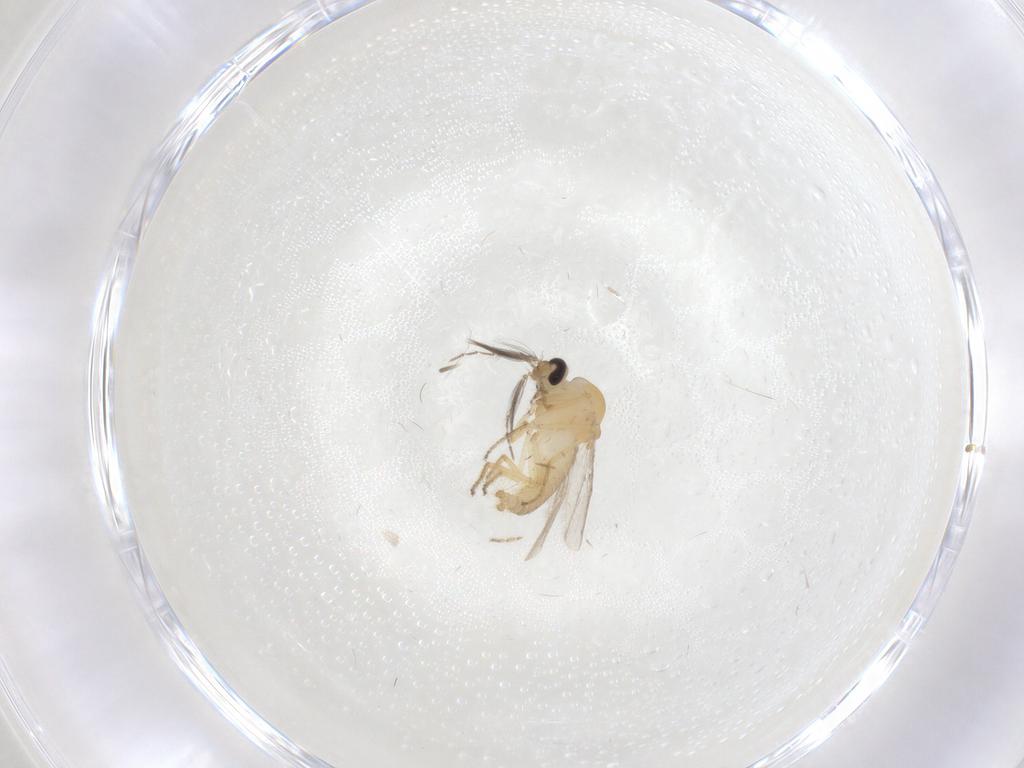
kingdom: Animalia
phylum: Arthropoda
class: Insecta
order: Diptera
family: Ceratopogonidae
